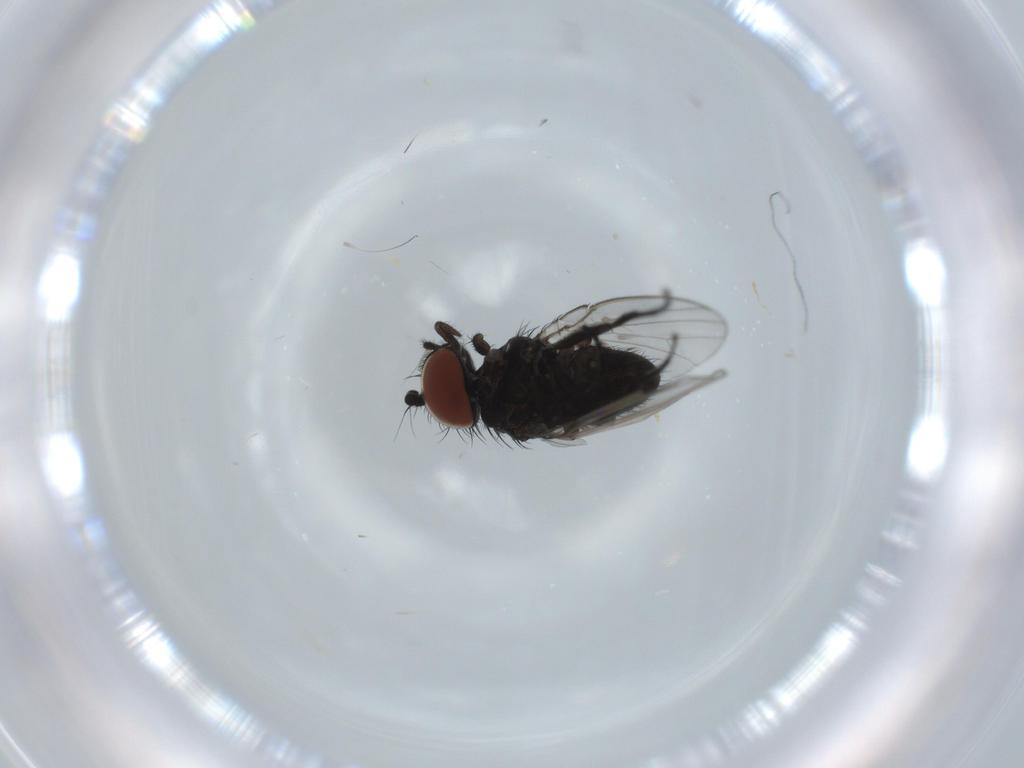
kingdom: Animalia
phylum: Arthropoda
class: Insecta
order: Diptera
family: Milichiidae
